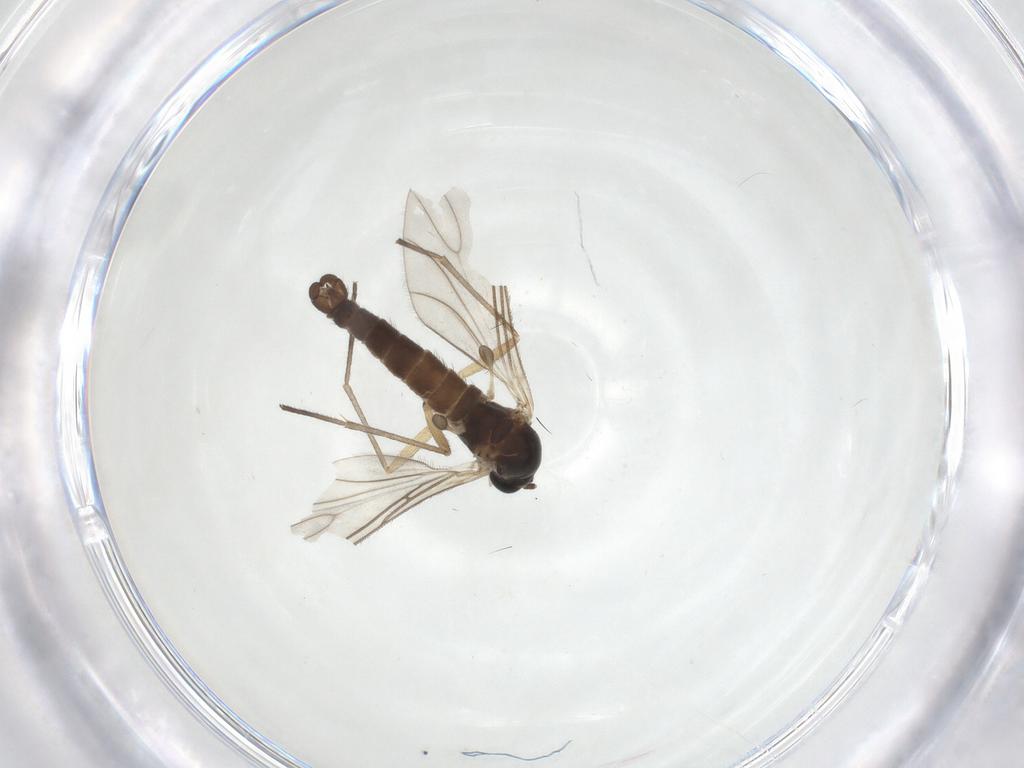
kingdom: Animalia
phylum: Arthropoda
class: Insecta
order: Diptera
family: Sciaridae
